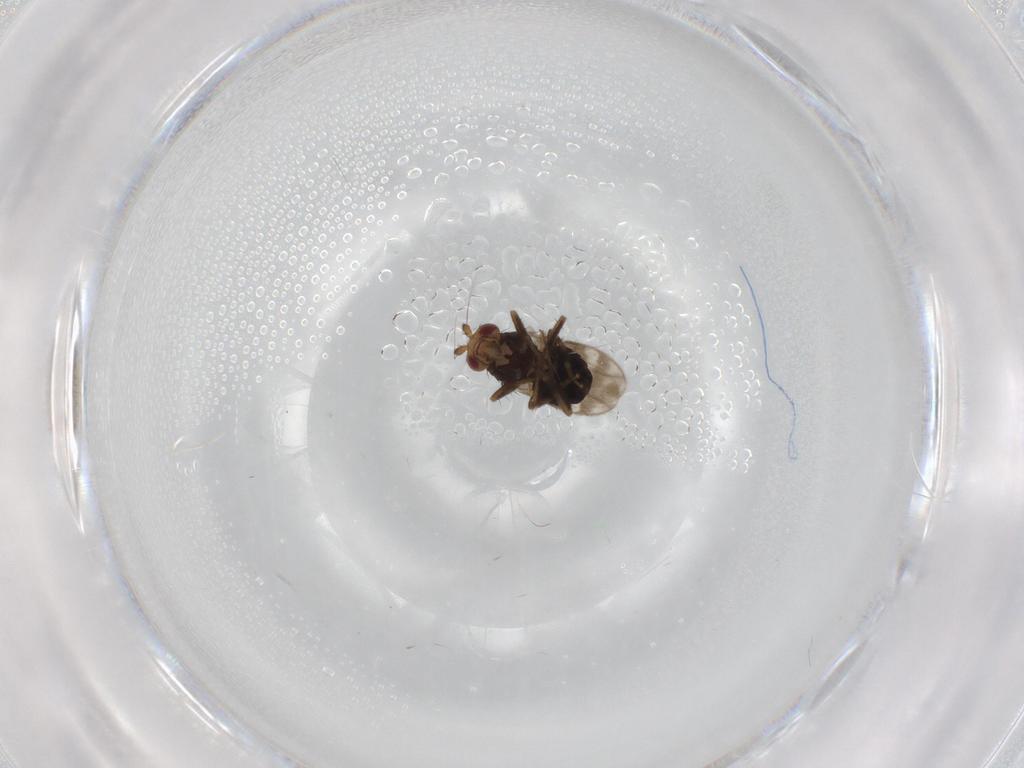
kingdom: Animalia
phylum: Arthropoda
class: Insecta
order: Diptera
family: Sphaeroceridae
